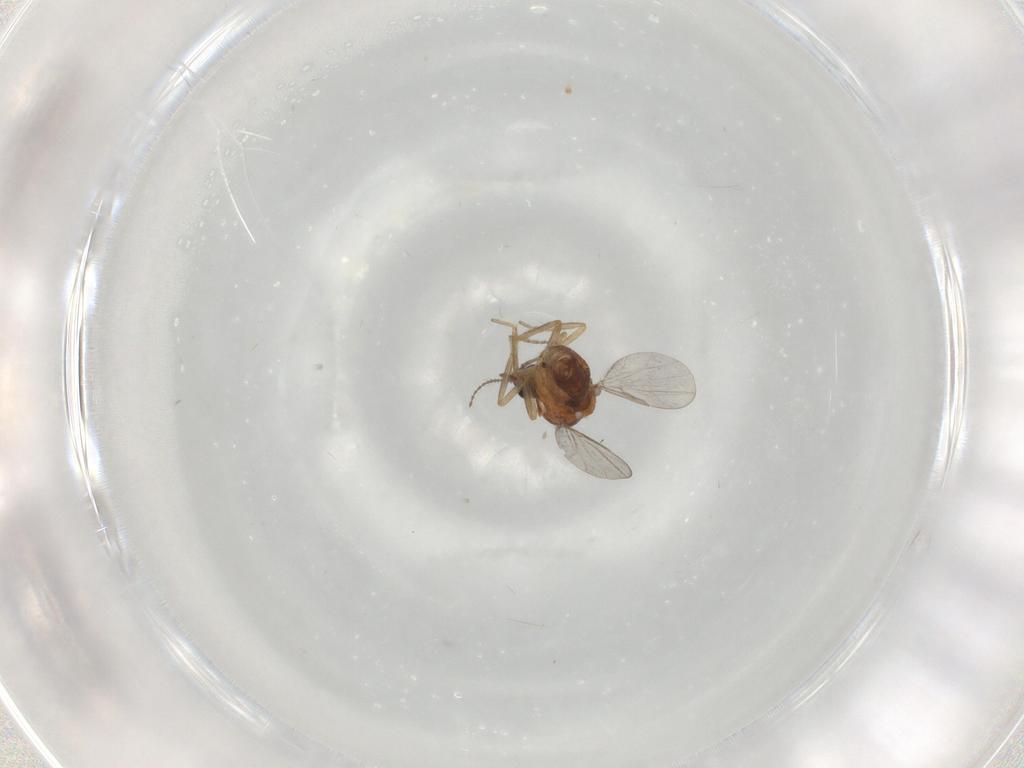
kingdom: Animalia
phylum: Arthropoda
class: Insecta
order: Diptera
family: Ceratopogonidae
